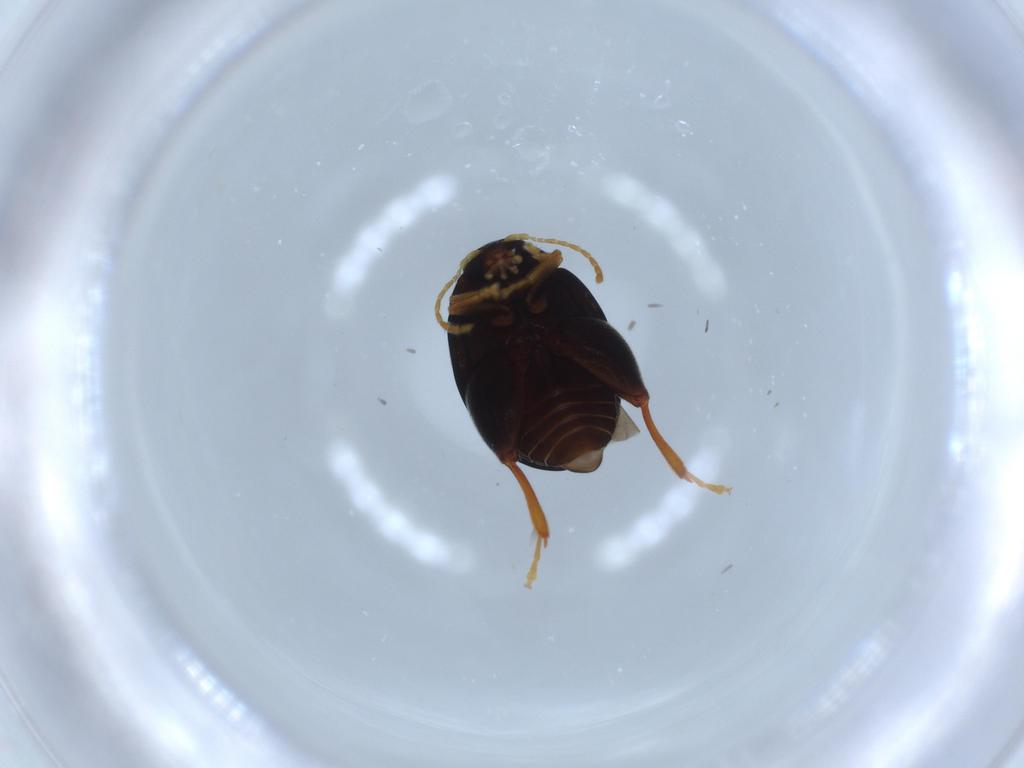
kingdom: Animalia
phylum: Arthropoda
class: Insecta
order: Coleoptera
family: Chrysomelidae
